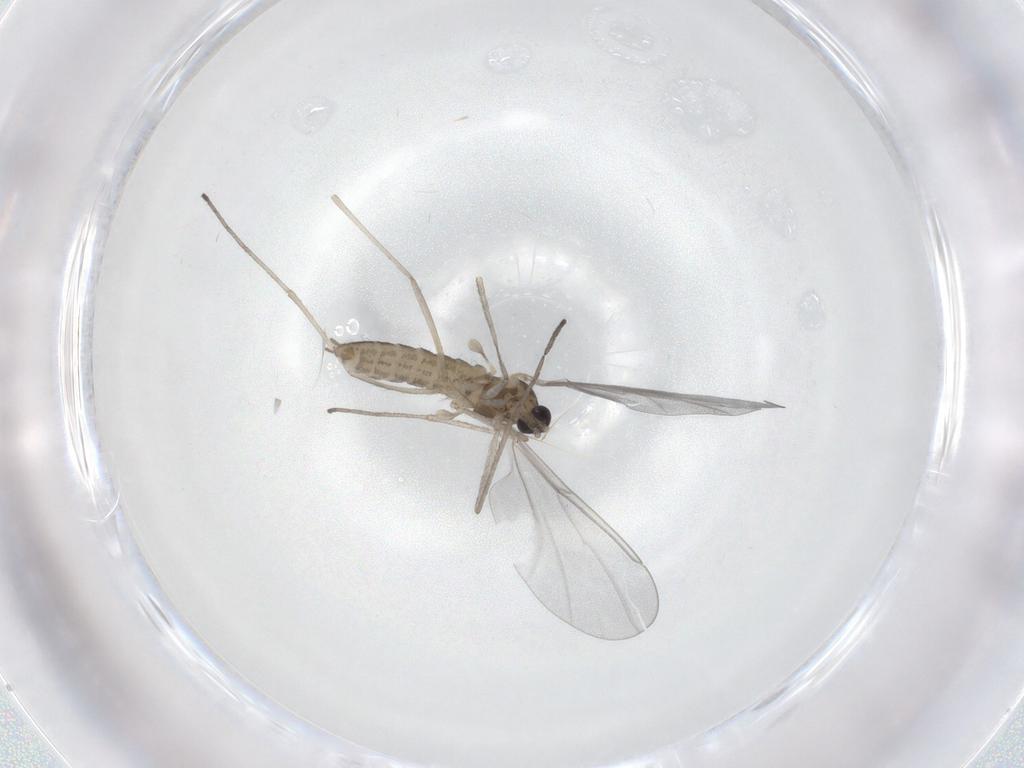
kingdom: Animalia
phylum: Arthropoda
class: Insecta
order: Diptera
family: Cecidomyiidae
